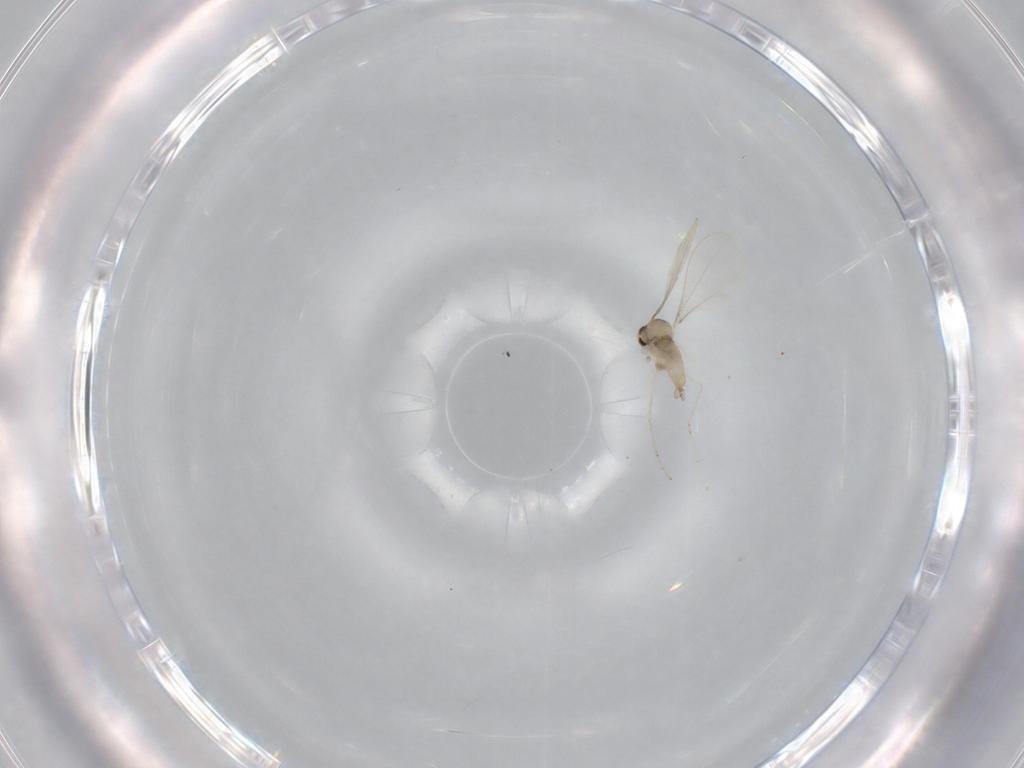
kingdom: Animalia
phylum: Arthropoda
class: Insecta
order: Diptera
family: Cecidomyiidae
